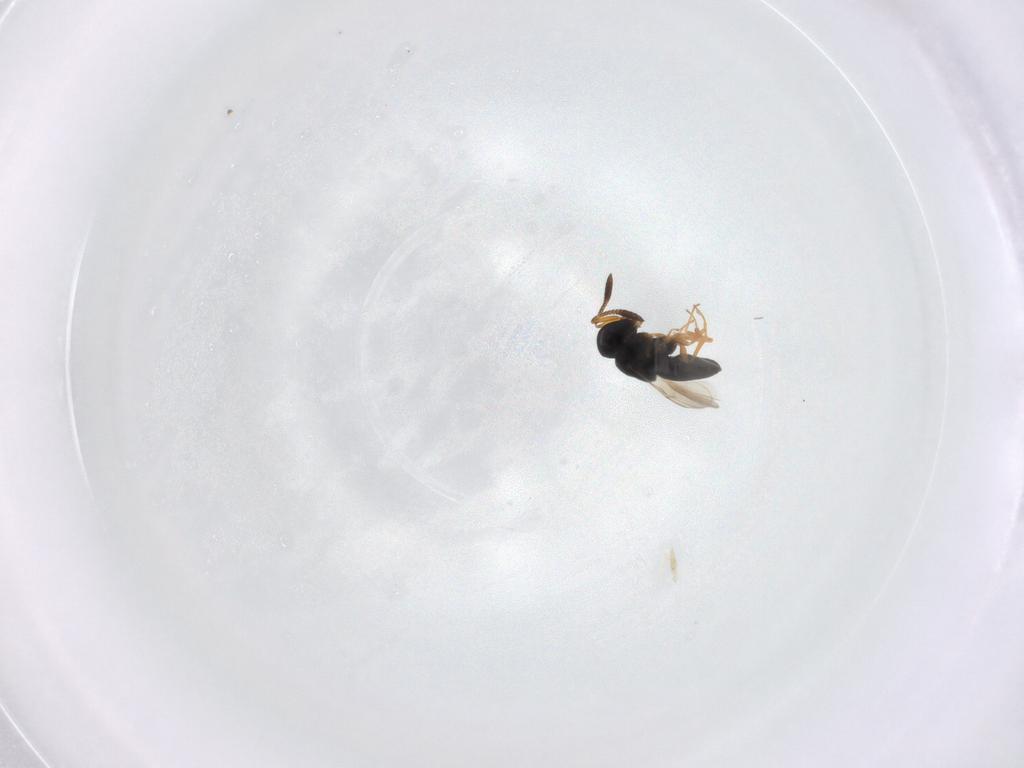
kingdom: Animalia
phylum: Arthropoda
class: Insecta
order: Hymenoptera
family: Scelionidae
